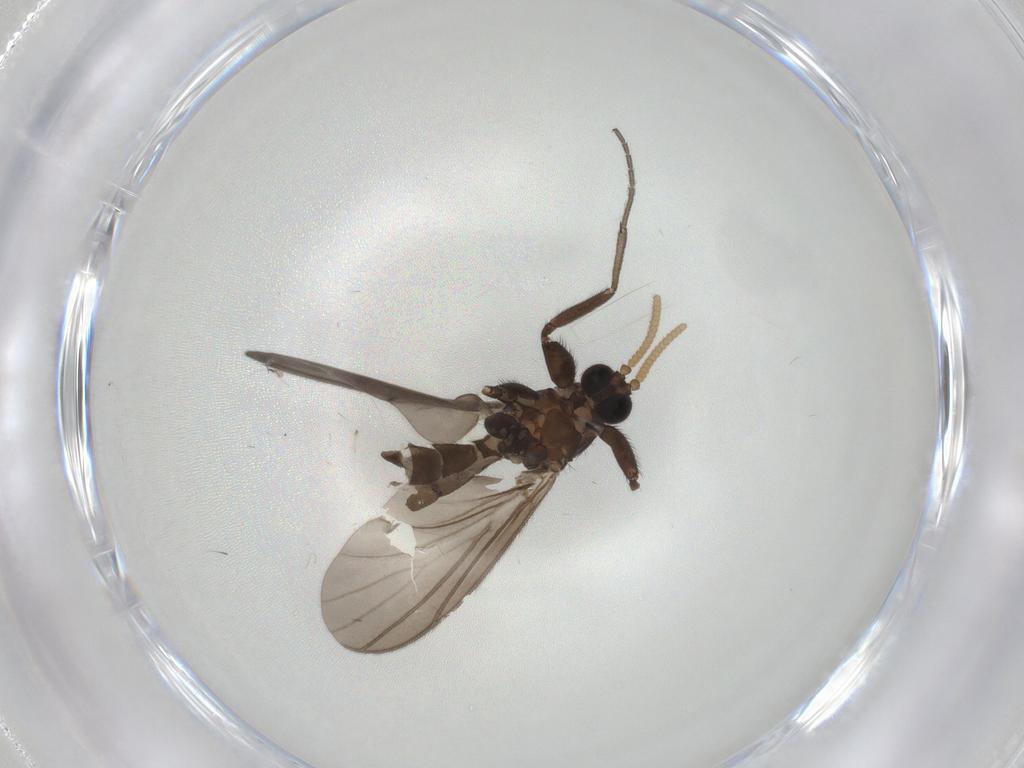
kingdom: Animalia
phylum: Arthropoda
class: Insecta
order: Diptera
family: Mycetophilidae
